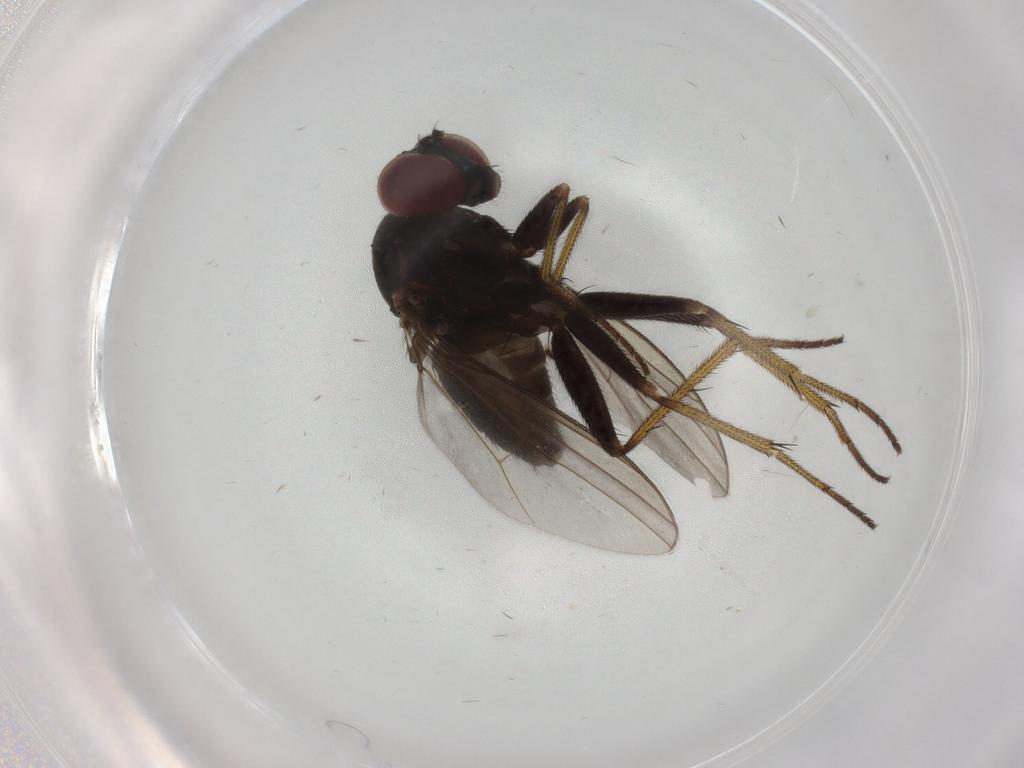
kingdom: Animalia
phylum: Arthropoda
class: Insecta
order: Diptera
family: Dolichopodidae
